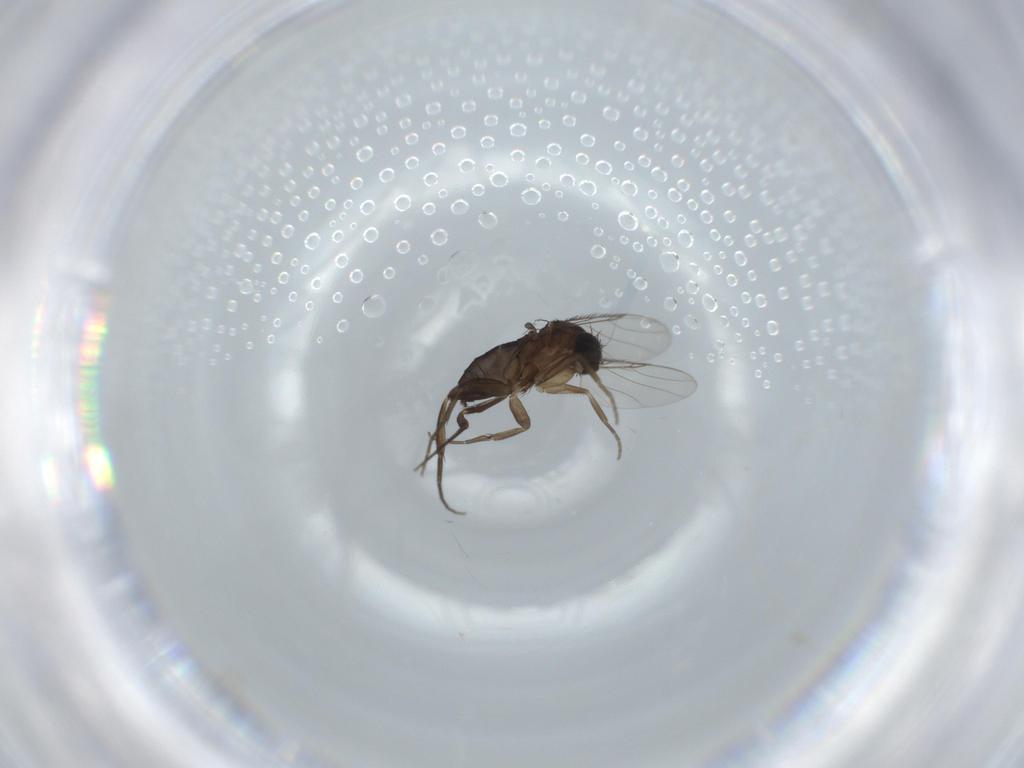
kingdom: Animalia
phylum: Arthropoda
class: Insecta
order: Diptera
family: Phoridae
